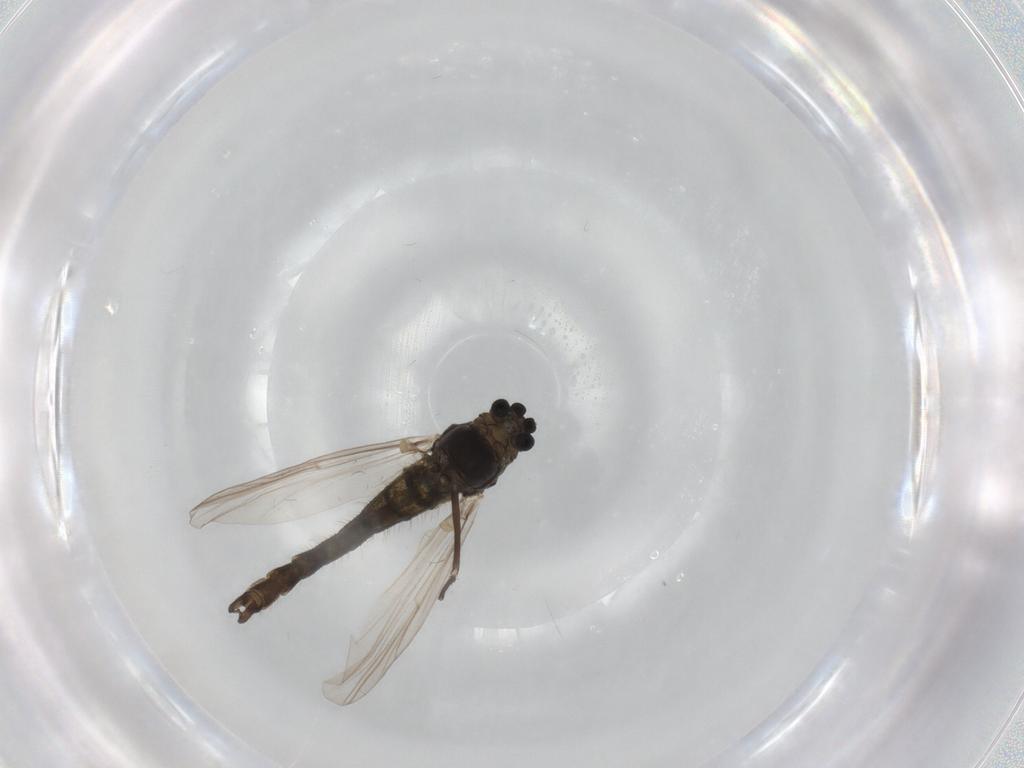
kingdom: Animalia
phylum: Arthropoda
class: Insecta
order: Diptera
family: Chironomidae
